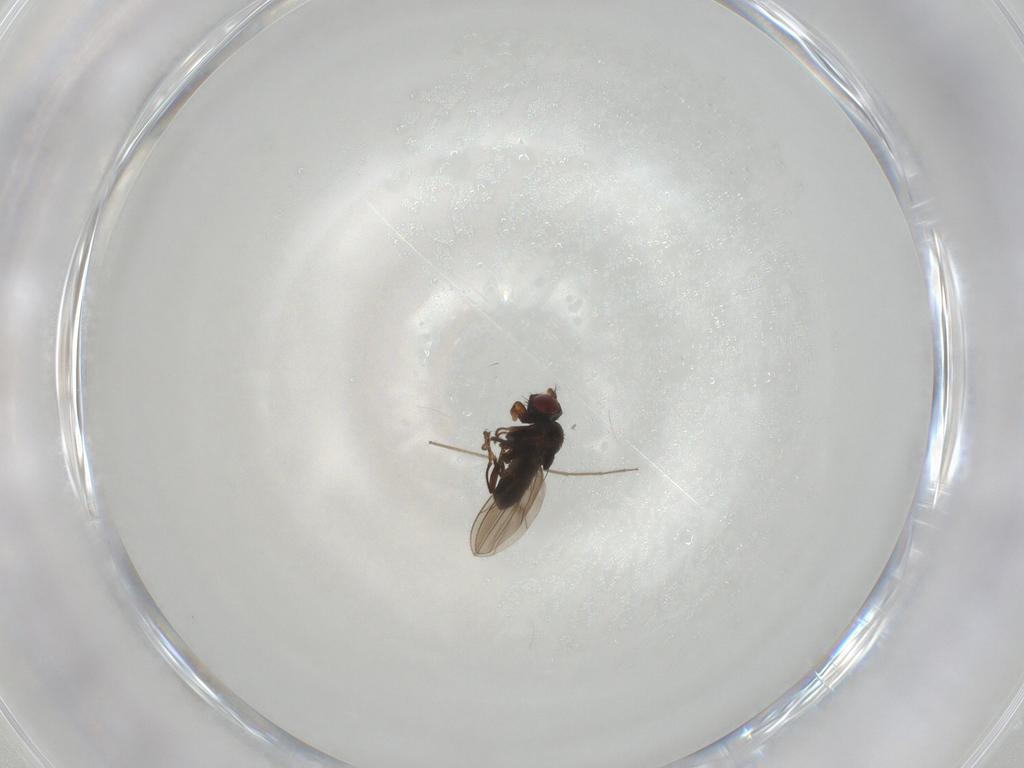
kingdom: Animalia
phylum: Arthropoda
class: Insecta
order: Diptera
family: Ephydridae
